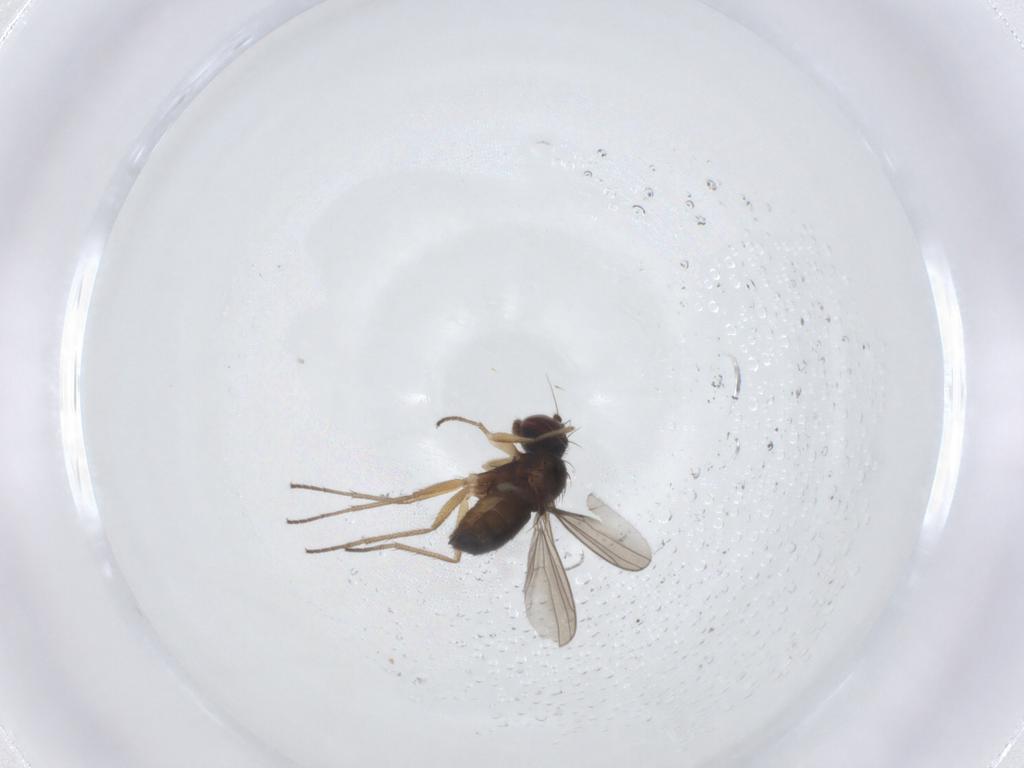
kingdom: Animalia
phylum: Arthropoda
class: Insecta
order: Diptera
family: Dolichopodidae
